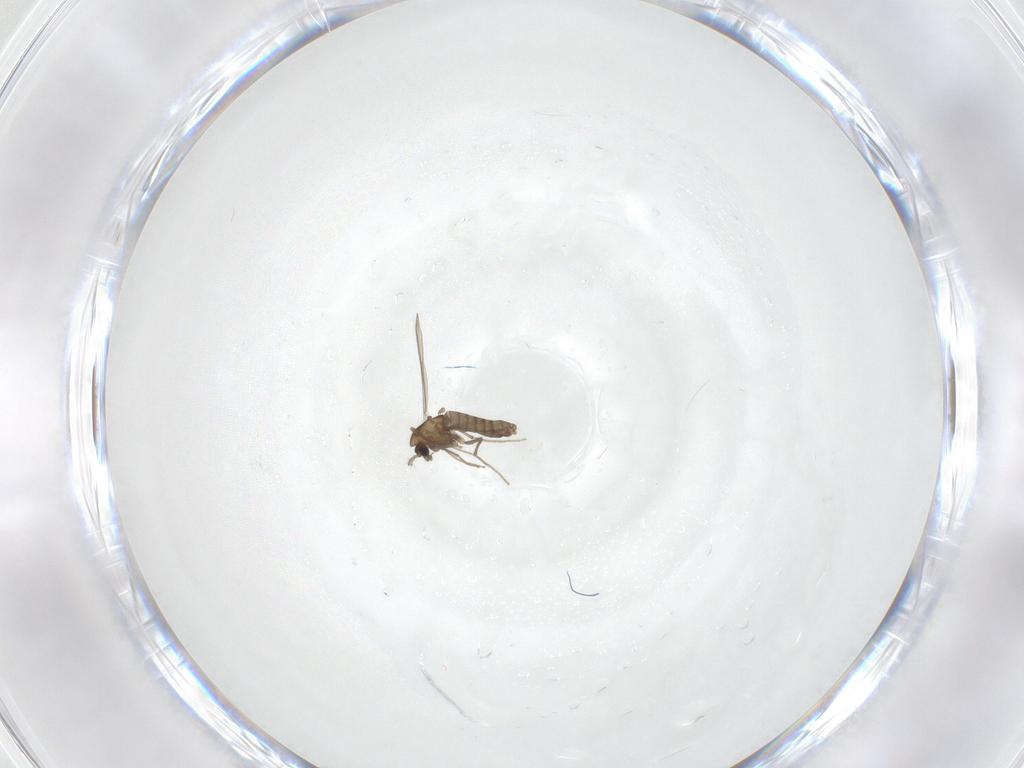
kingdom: Animalia
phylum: Arthropoda
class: Insecta
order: Diptera
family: Chironomidae
